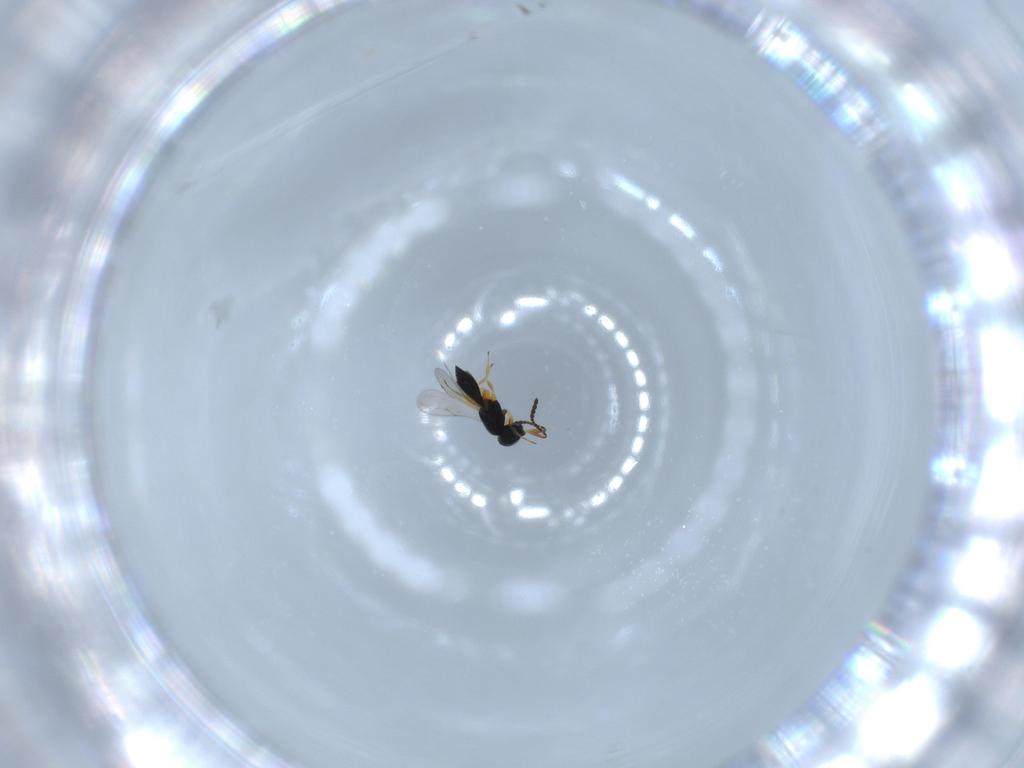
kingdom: Animalia
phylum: Arthropoda
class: Insecta
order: Hymenoptera
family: Scelionidae
